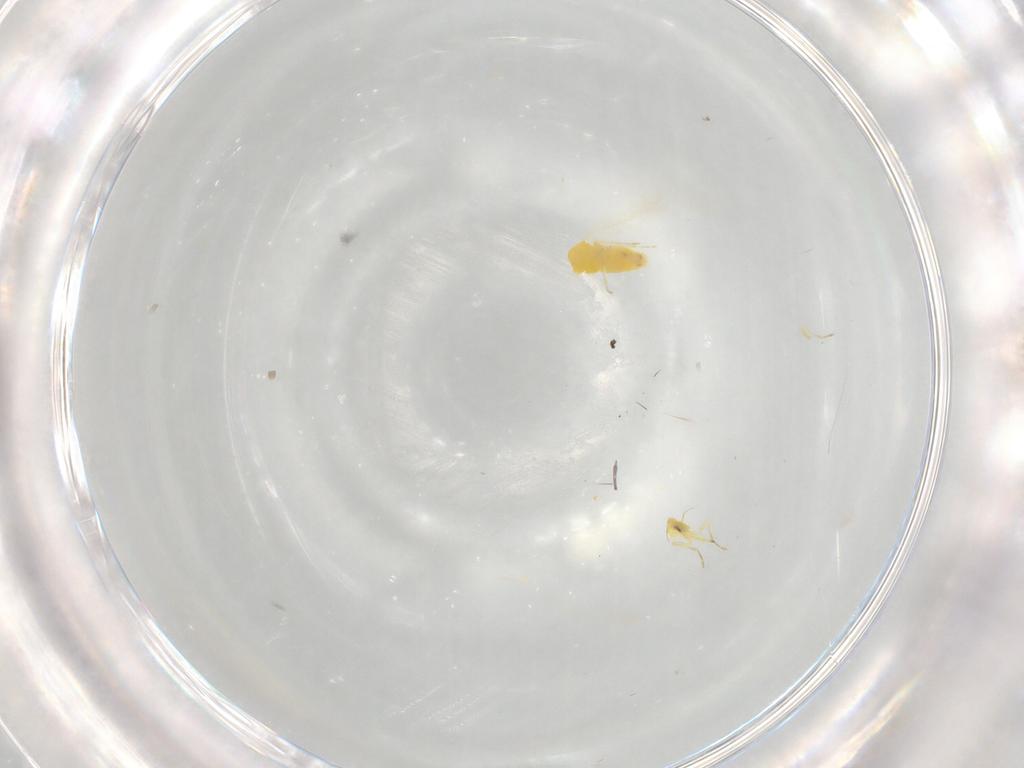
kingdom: Animalia
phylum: Arthropoda
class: Insecta
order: Hemiptera
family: Aleyrodidae
